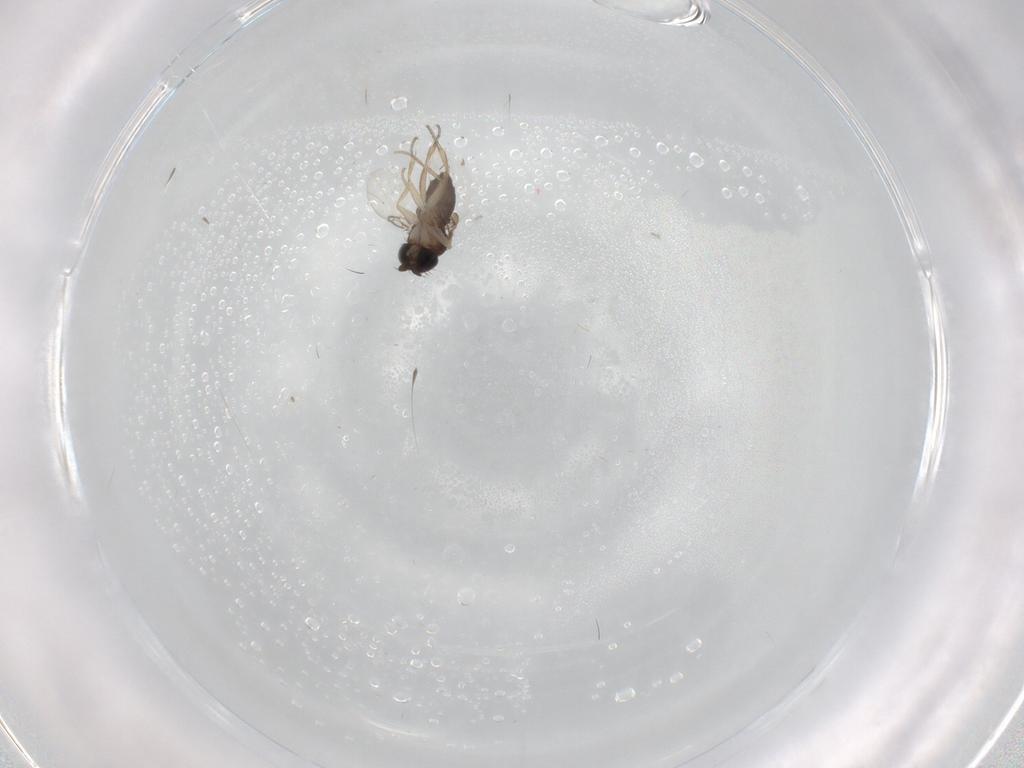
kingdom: Animalia
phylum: Arthropoda
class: Insecta
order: Diptera
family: Phoridae
